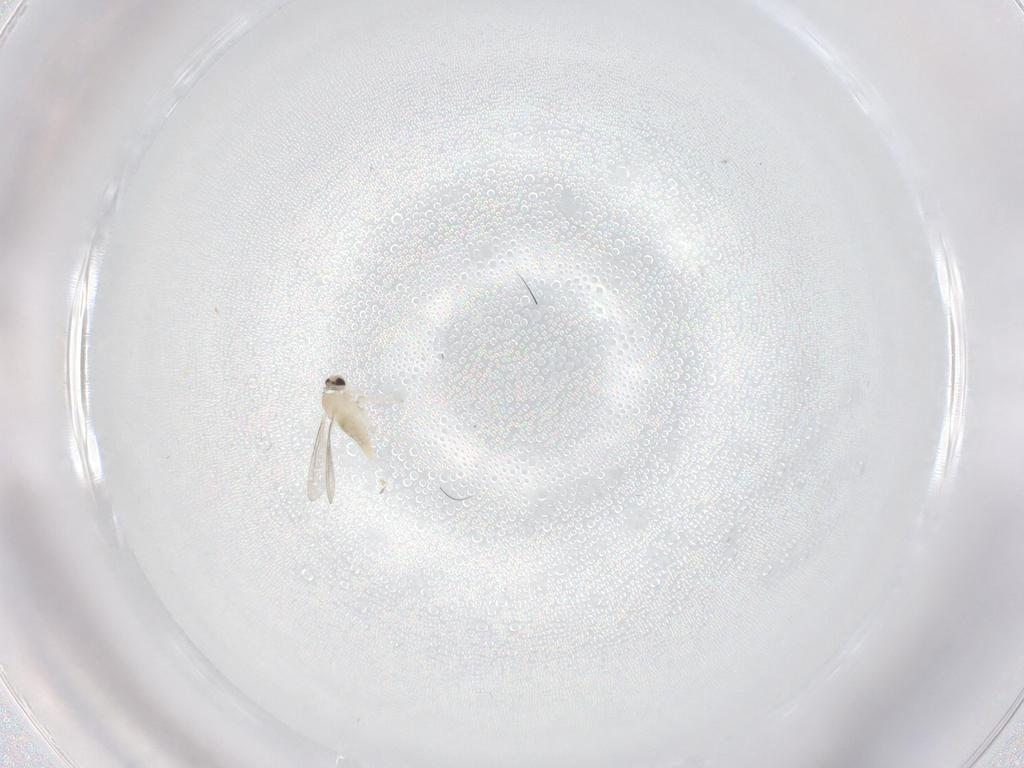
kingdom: Animalia
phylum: Arthropoda
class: Insecta
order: Diptera
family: Cecidomyiidae
